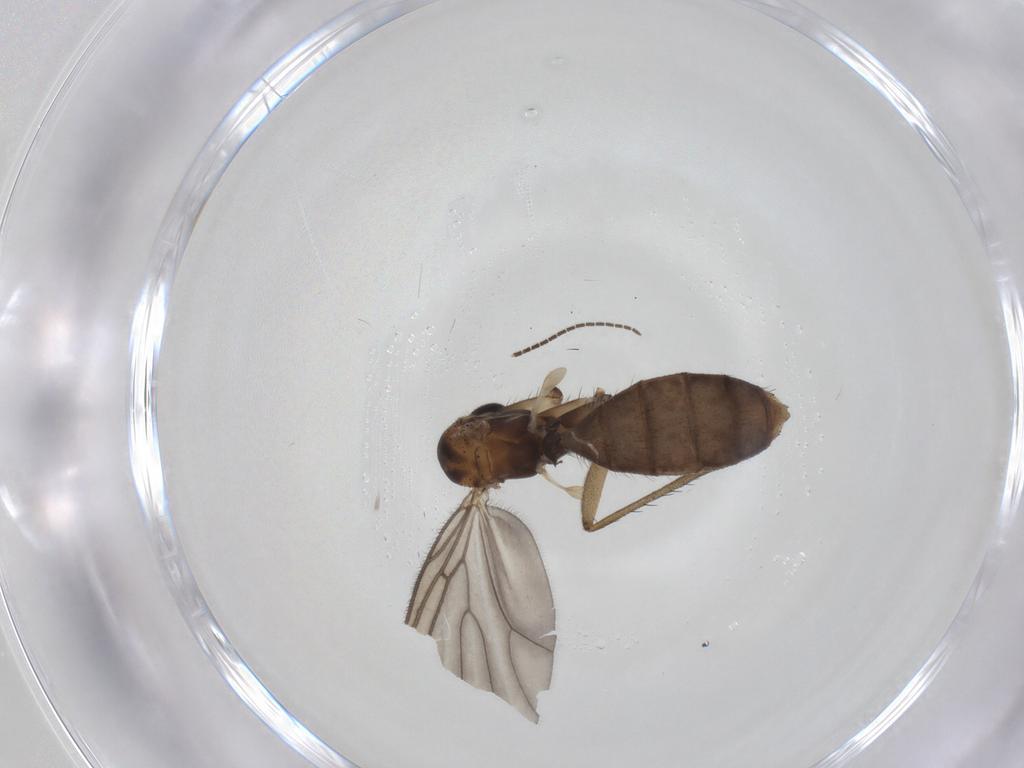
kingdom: Animalia
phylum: Arthropoda
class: Insecta
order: Diptera
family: Mycetophilidae
